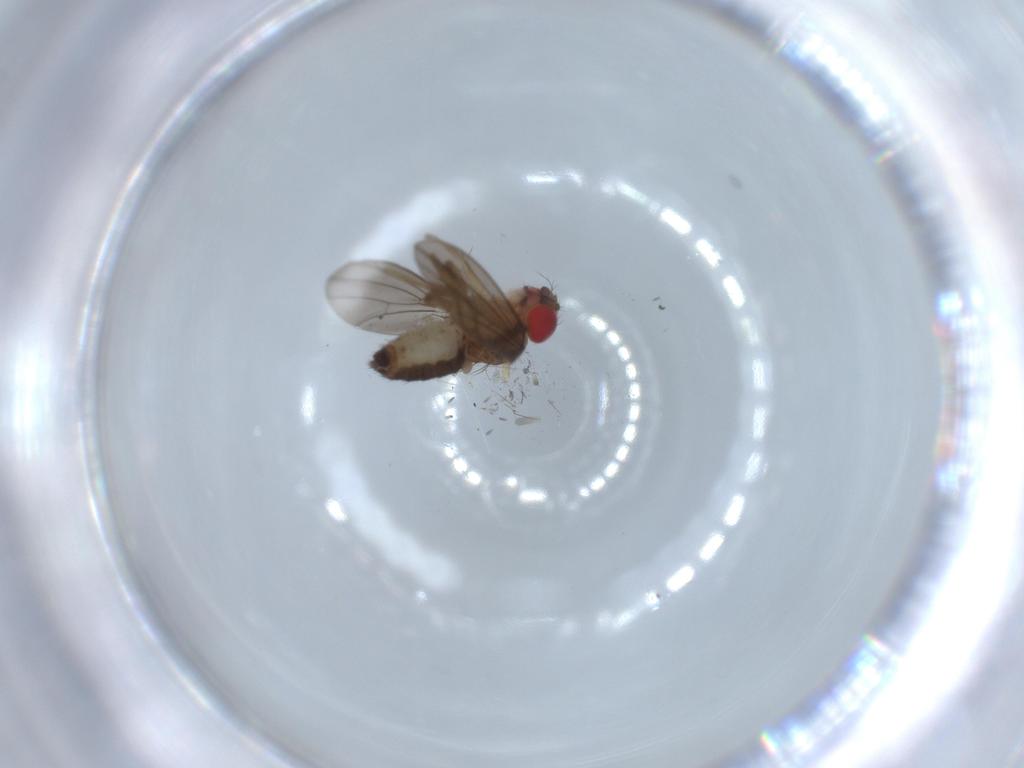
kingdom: Animalia
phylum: Arthropoda
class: Insecta
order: Diptera
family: Drosophilidae
